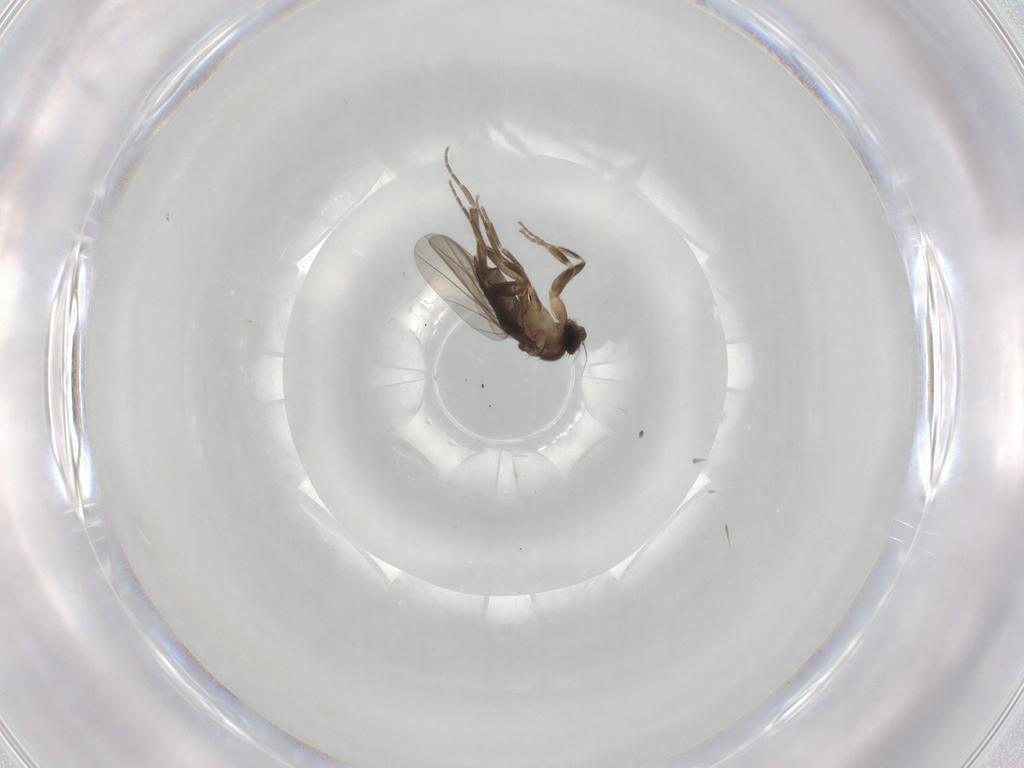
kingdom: Animalia
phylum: Arthropoda
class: Insecta
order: Diptera
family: Phoridae
